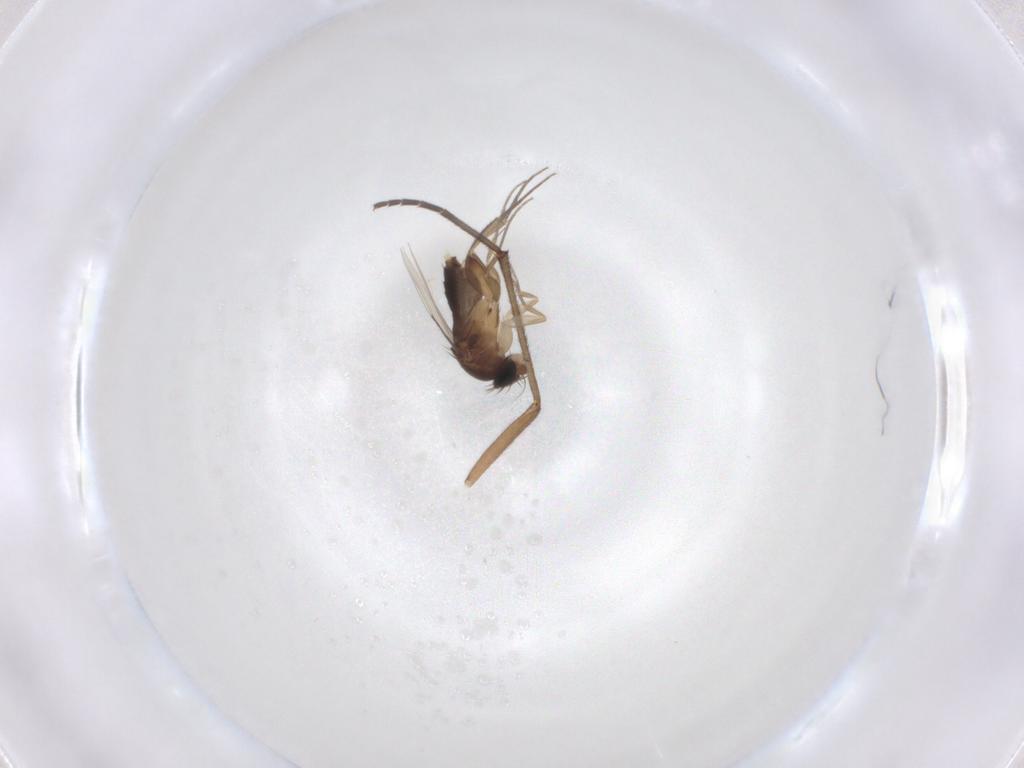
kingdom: Animalia
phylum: Arthropoda
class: Insecta
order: Diptera
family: Phoridae
